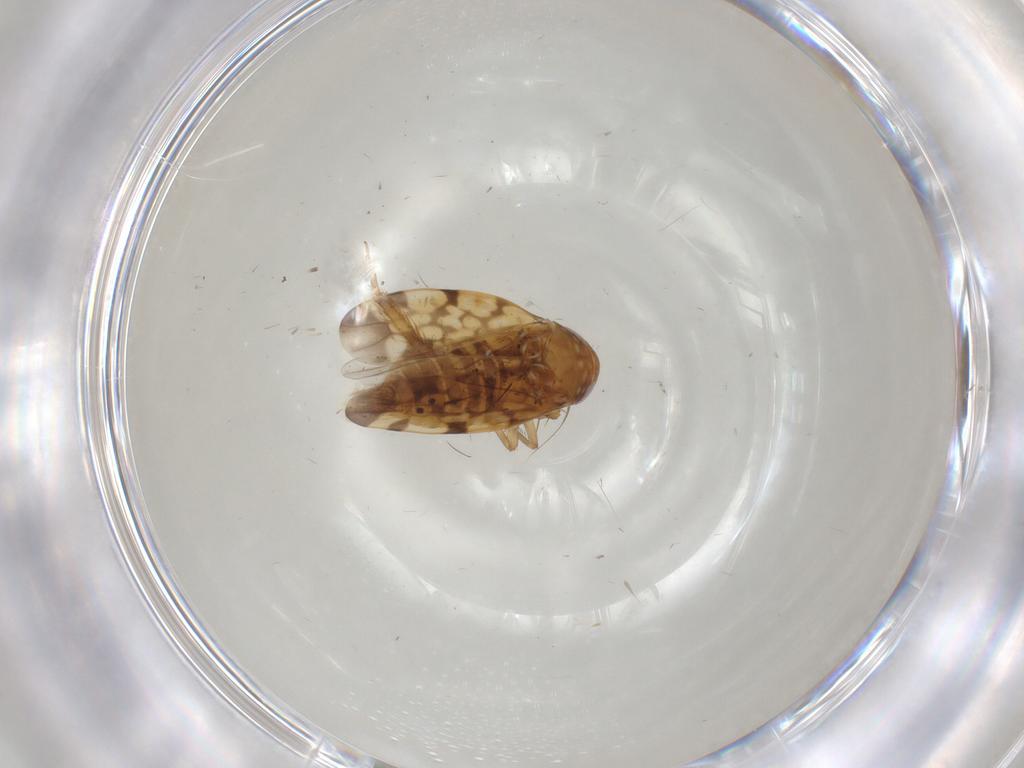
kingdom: Animalia
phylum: Arthropoda
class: Insecta
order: Hemiptera
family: Cicadellidae
